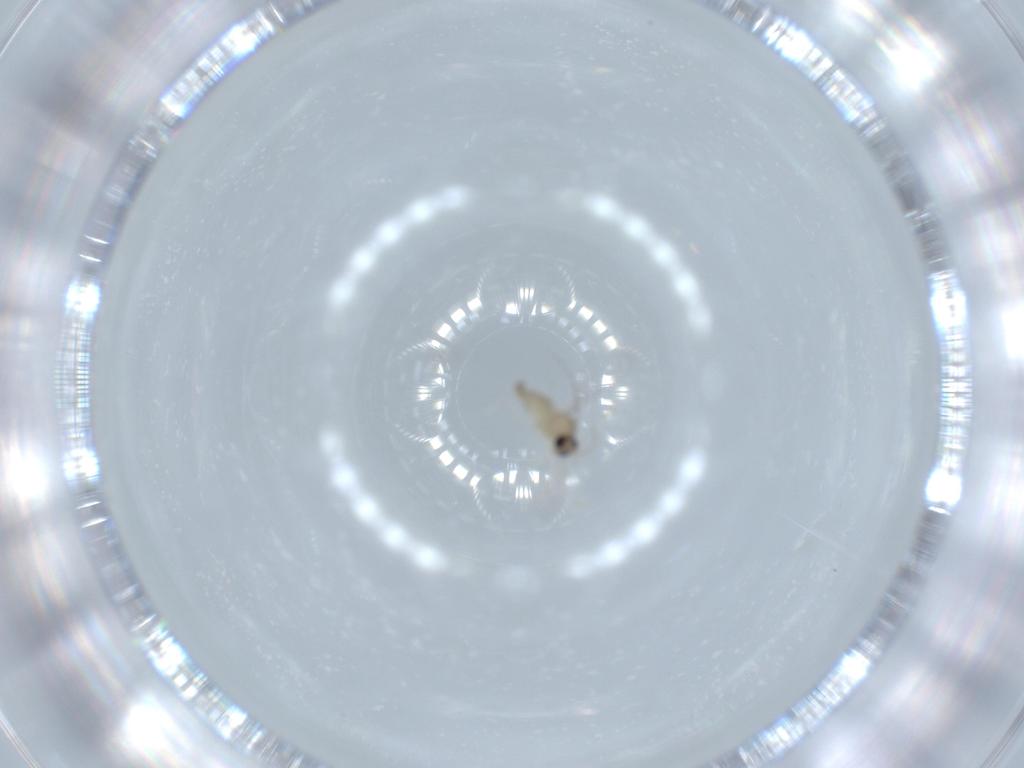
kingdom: Animalia
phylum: Arthropoda
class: Insecta
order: Diptera
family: Cecidomyiidae
